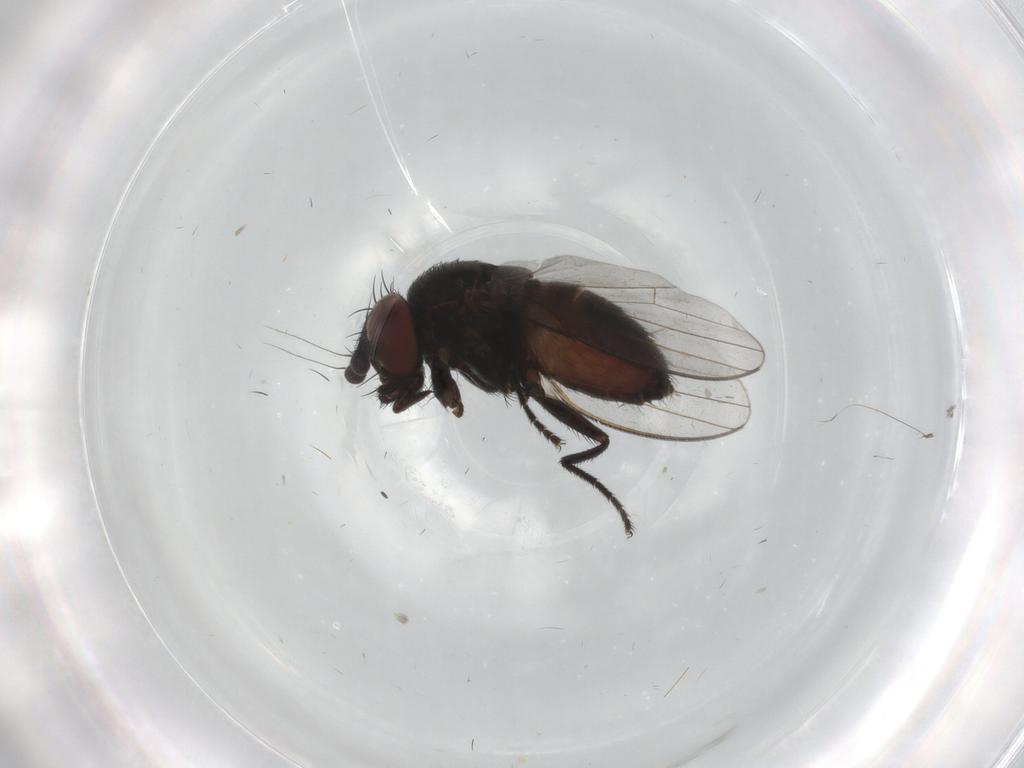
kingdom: Animalia
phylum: Arthropoda
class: Insecta
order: Diptera
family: Milichiidae
